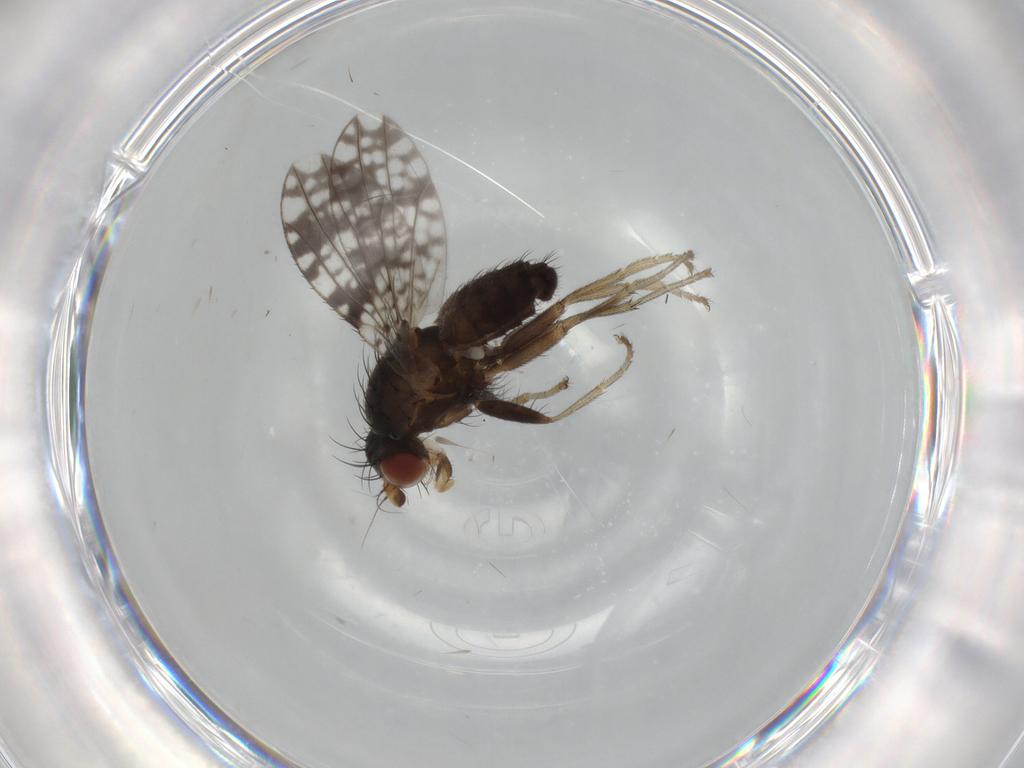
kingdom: Animalia
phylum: Arthropoda
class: Insecta
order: Diptera
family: Tephritidae
